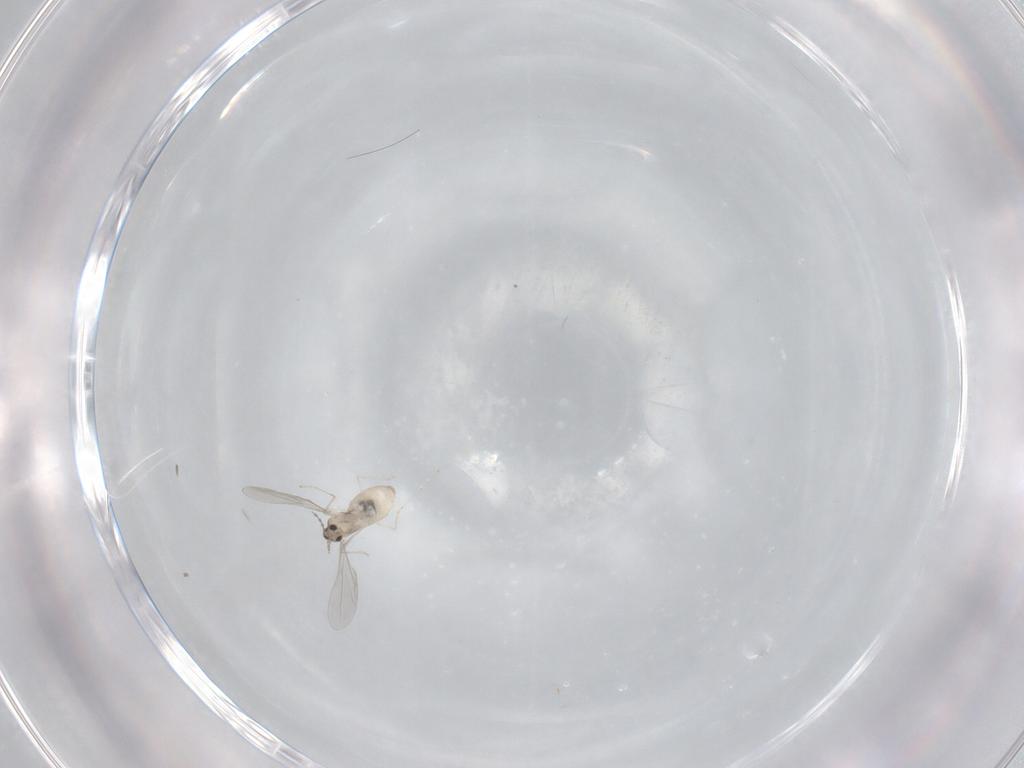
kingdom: Animalia
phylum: Arthropoda
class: Insecta
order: Diptera
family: Cecidomyiidae
